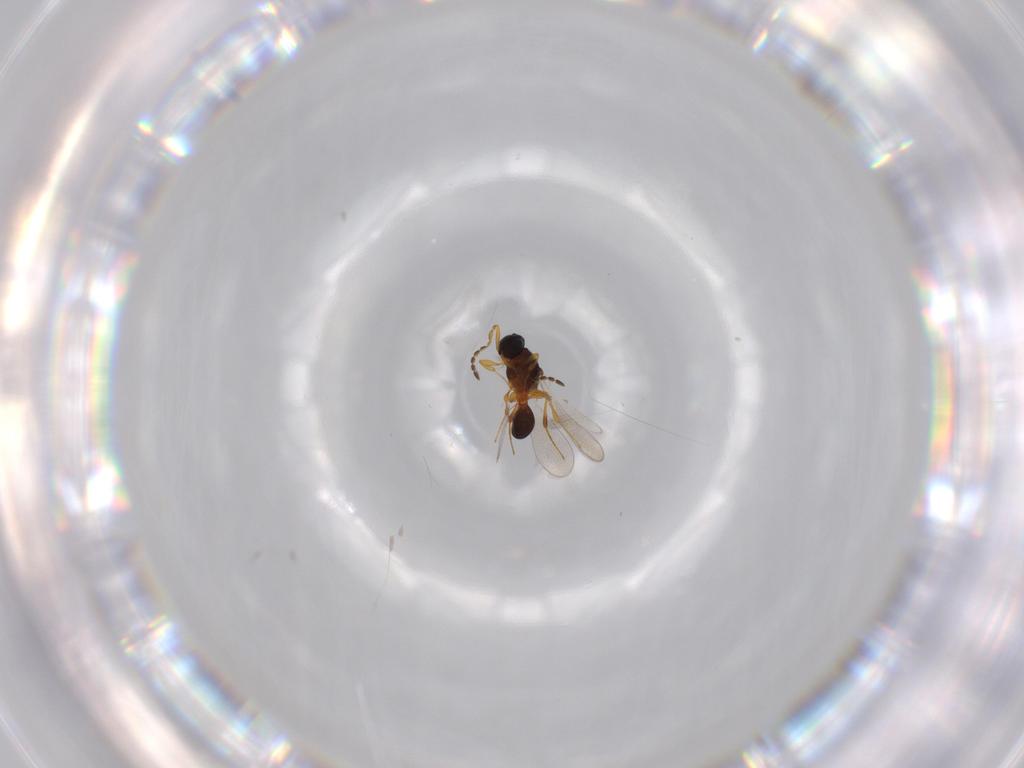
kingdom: Animalia
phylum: Arthropoda
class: Insecta
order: Hymenoptera
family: Platygastridae
